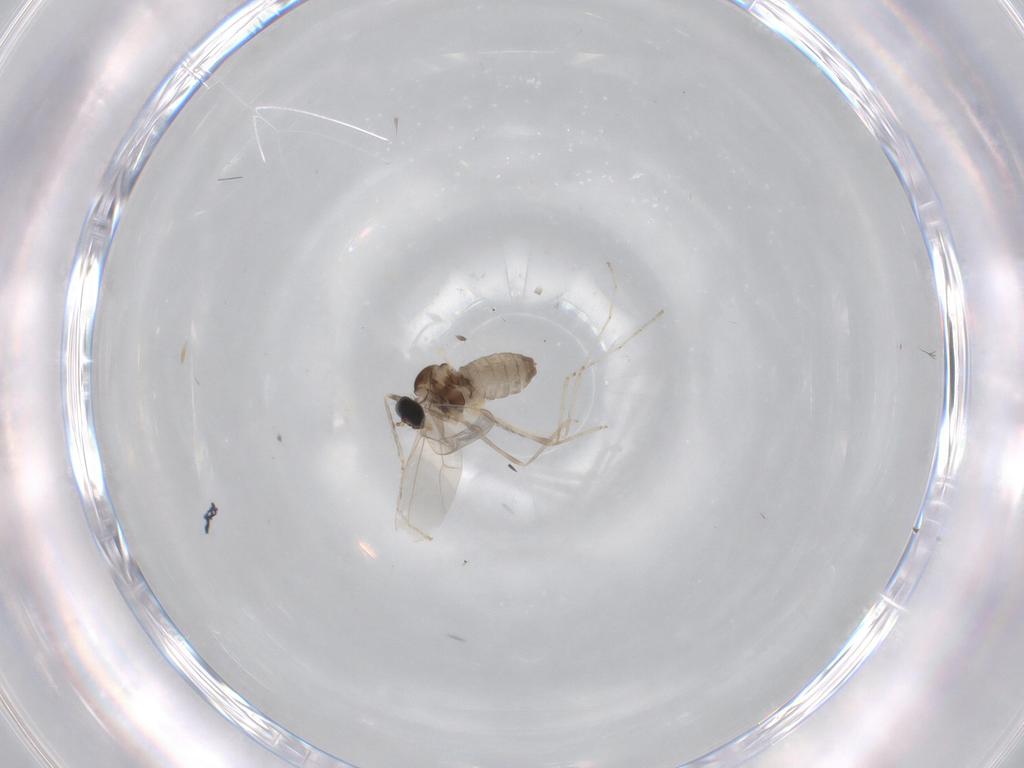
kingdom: Animalia
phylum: Arthropoda
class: Insecta
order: Diptera
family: Cecidomyiidae
